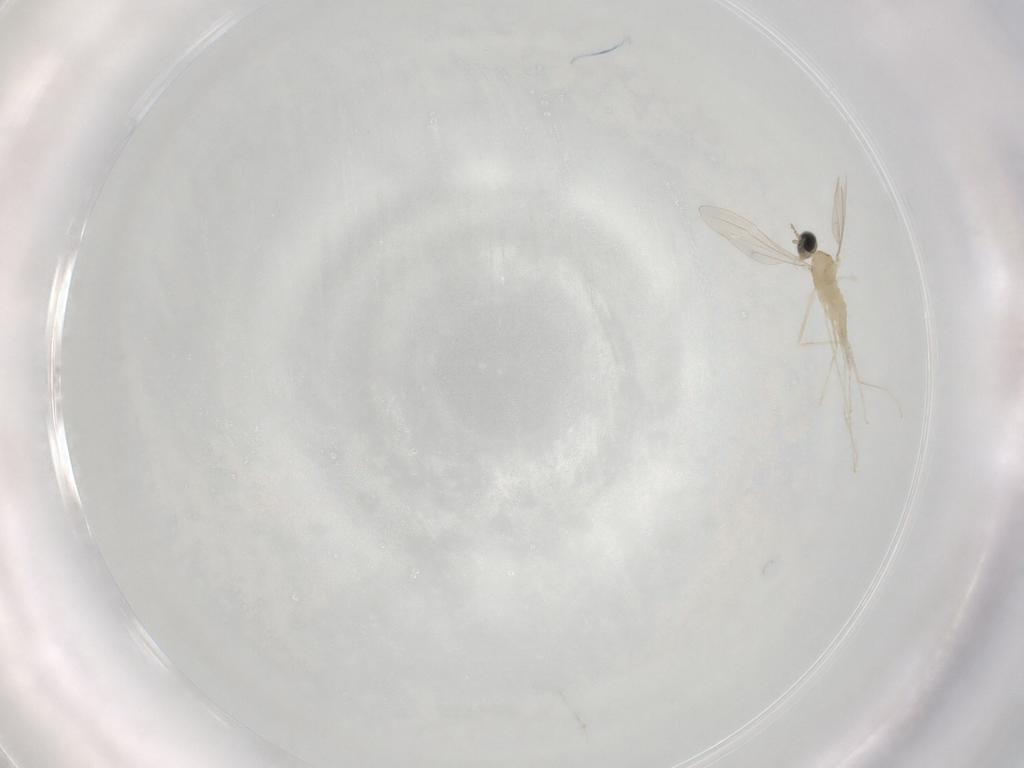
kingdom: Animalia
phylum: Arthropoda
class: Insecta
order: Diptera
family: Cecidomyiidae
